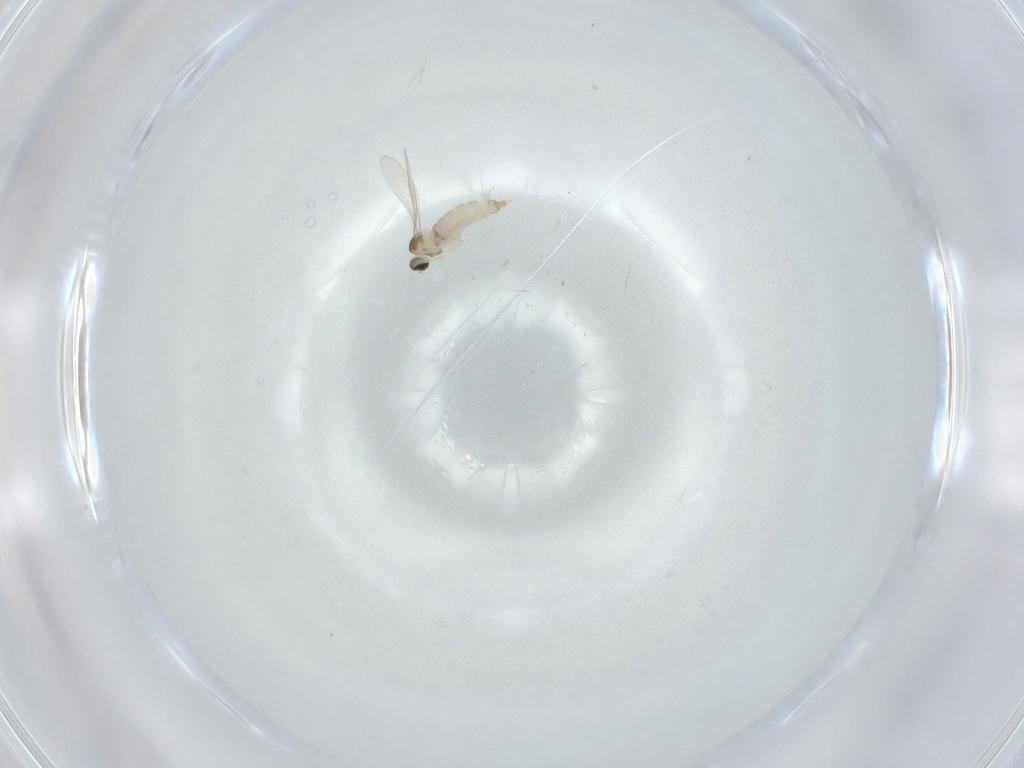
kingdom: Animalia
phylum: Arthropoda
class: Insecta
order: Diptera
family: Cecidomyiidae
